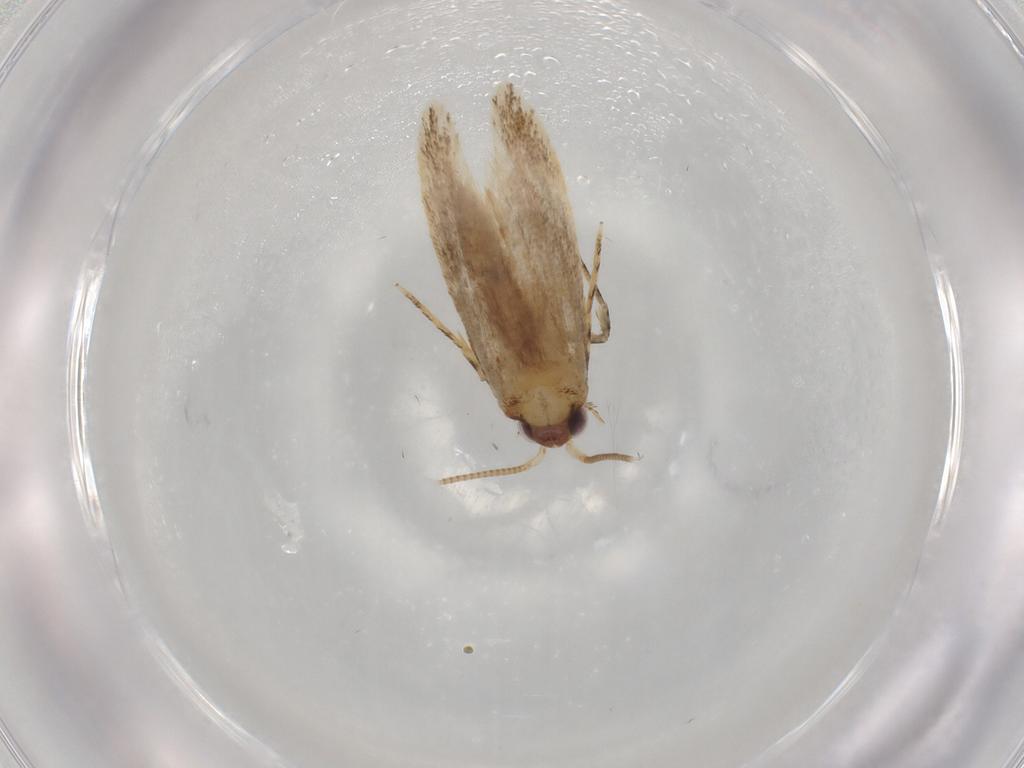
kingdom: Animalia
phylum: Arthropoda
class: Insecta
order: Lepidoptera
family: Nepticulidae
